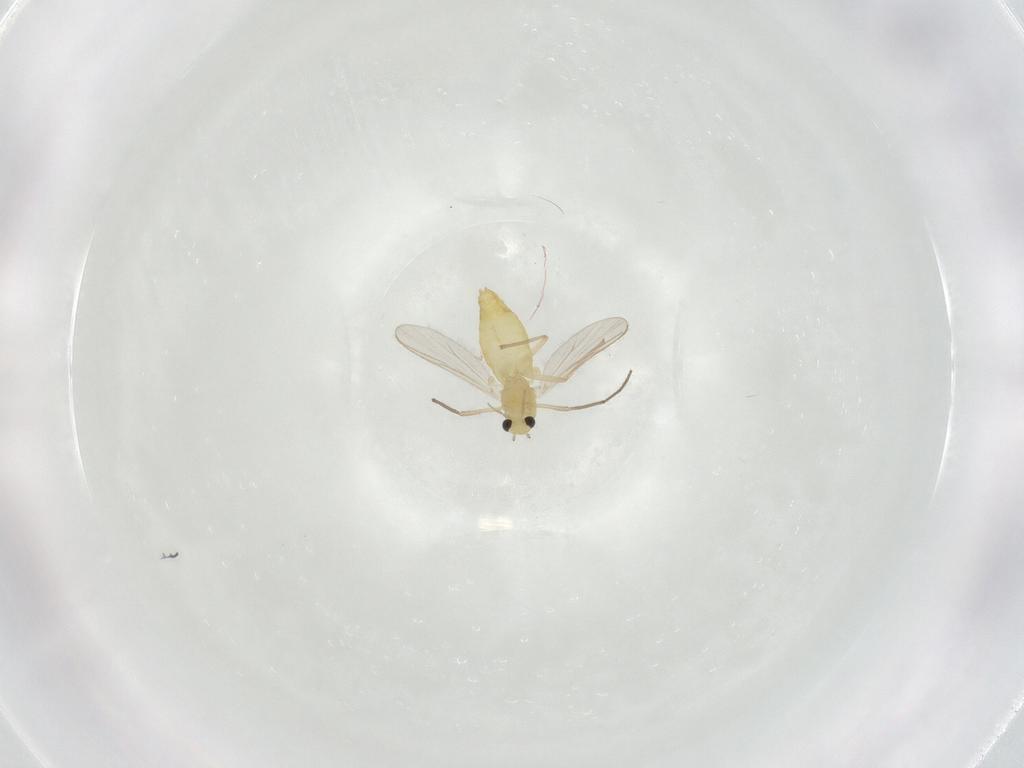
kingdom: Animalia
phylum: Arthropoda
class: Insecta
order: Diptera
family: Chironomidae
